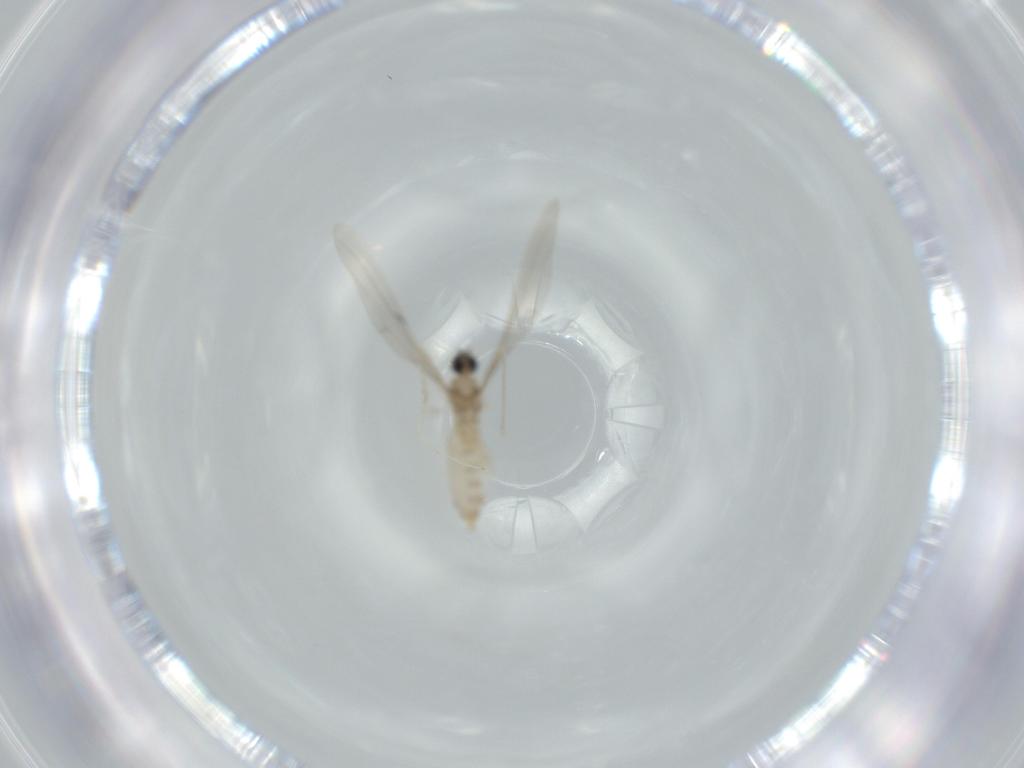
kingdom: Animalia
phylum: Arthropoda
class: Insecta
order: Diptera
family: Cecidomyiidae
